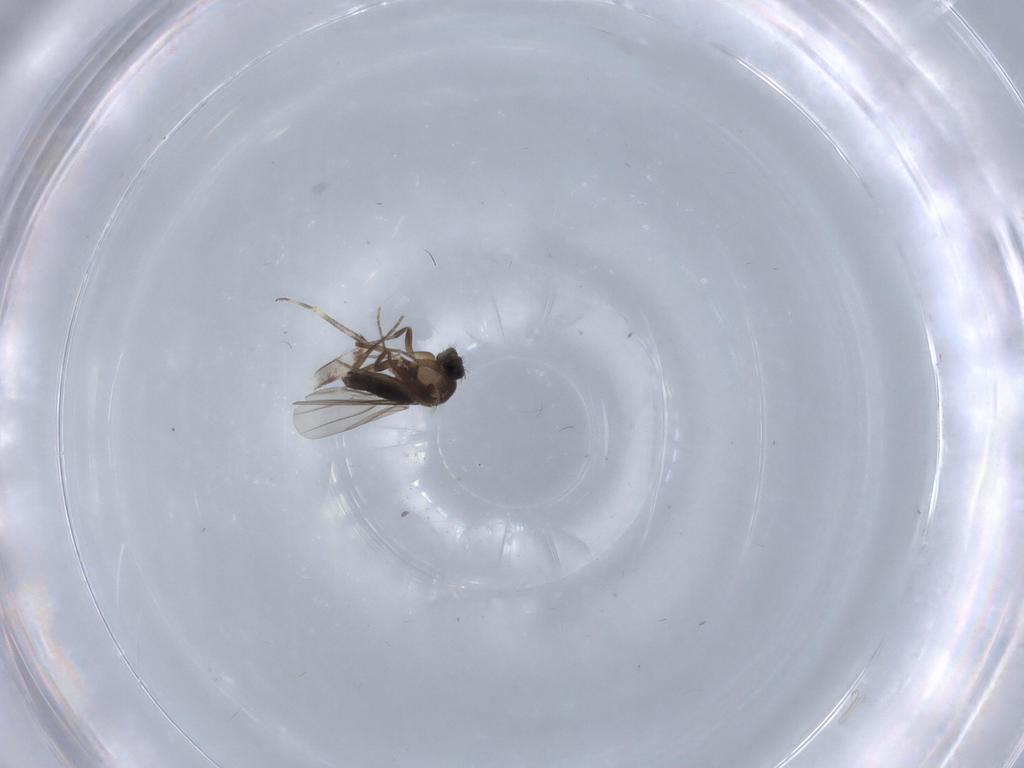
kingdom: Animalia
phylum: Arthropoda
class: Insecta
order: Diptera
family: Phoridae
